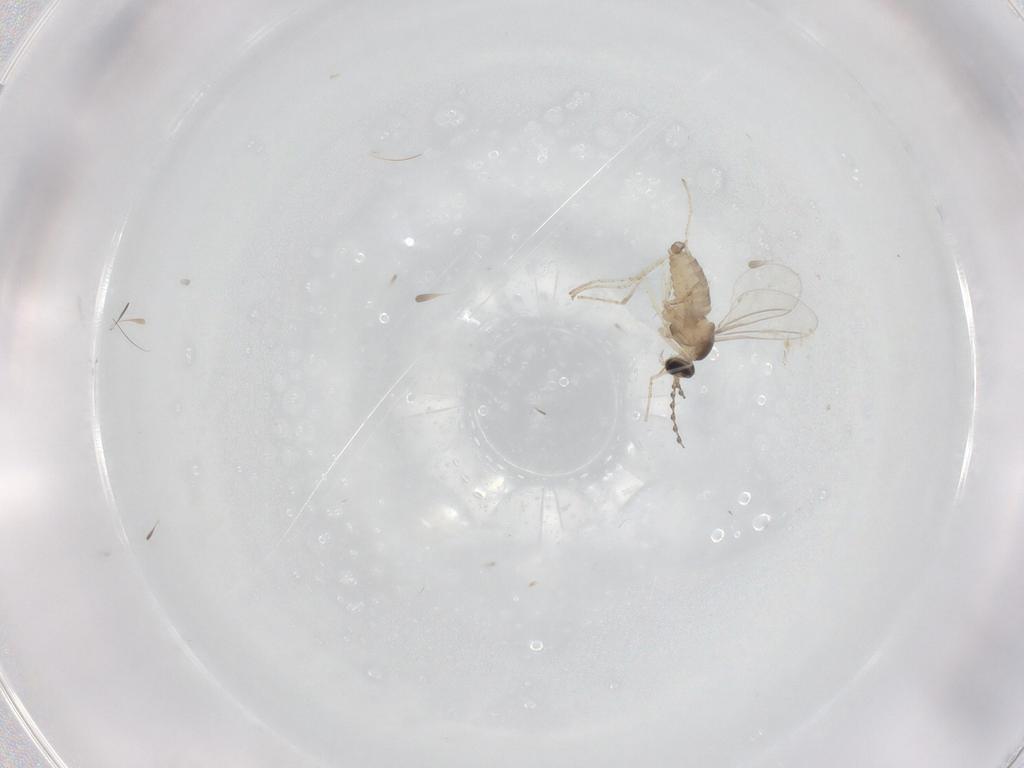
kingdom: Animalia
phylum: Arthropoda
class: Insecta
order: Diptera
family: Cecidomyiidae
